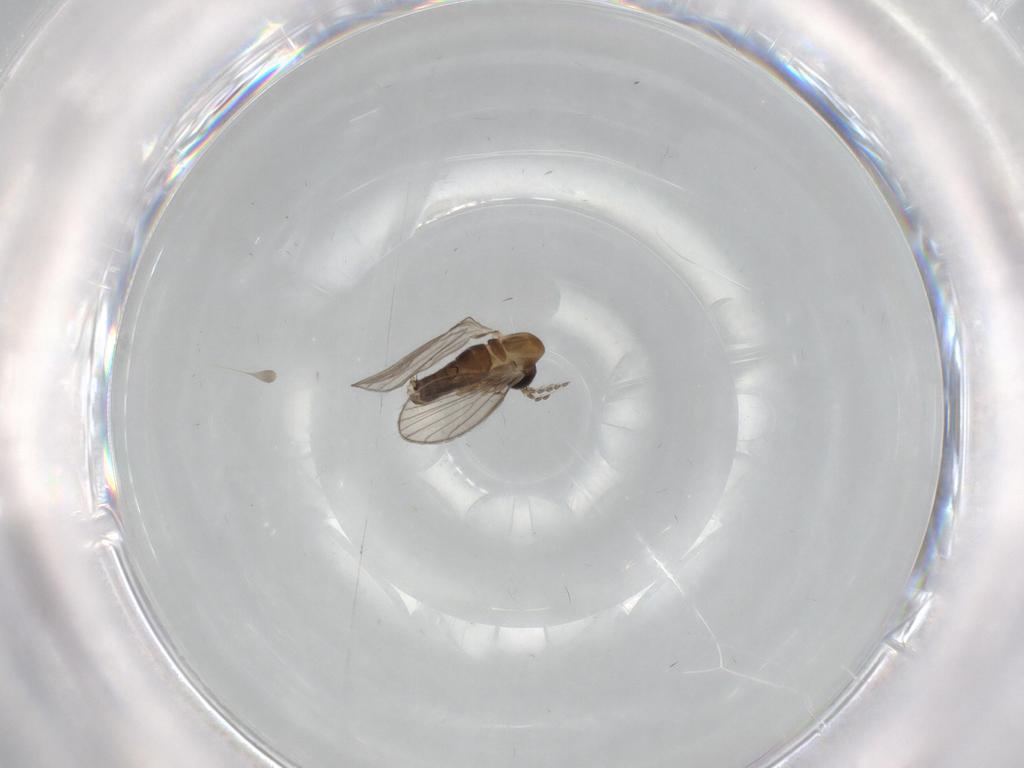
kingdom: Animalia
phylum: Arthropoda
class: Insecta
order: Diptera
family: Psychodidae
